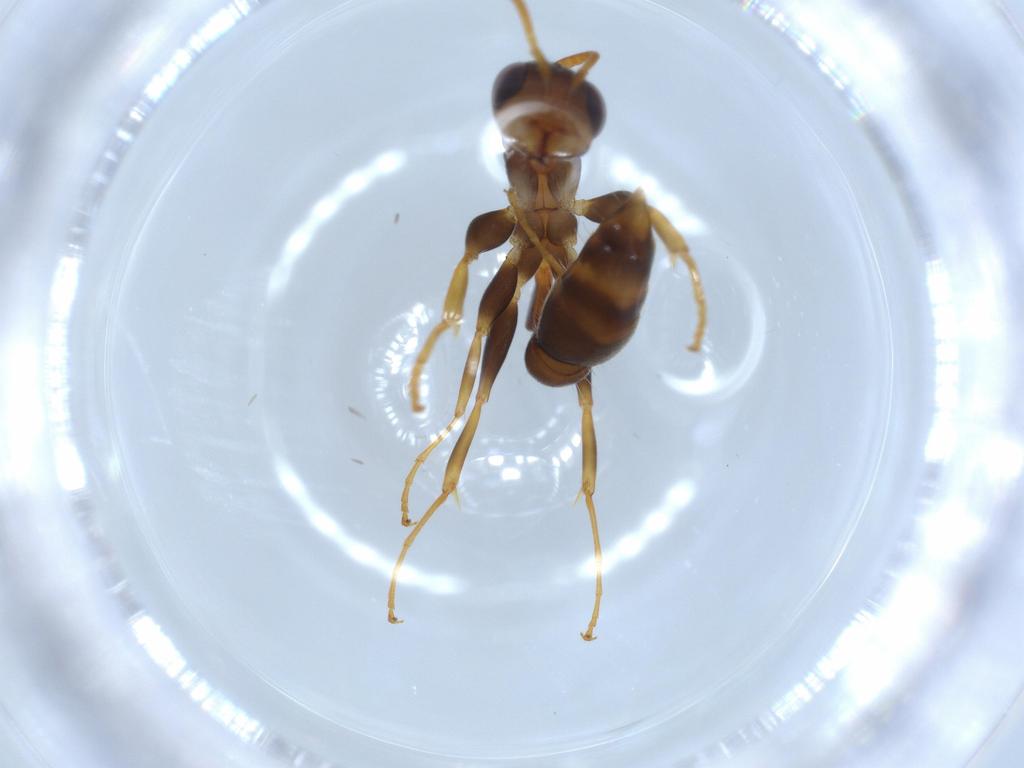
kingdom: Animalia
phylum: Arthropoda
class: Insecta
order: Hymenoptera
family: Formicidae
